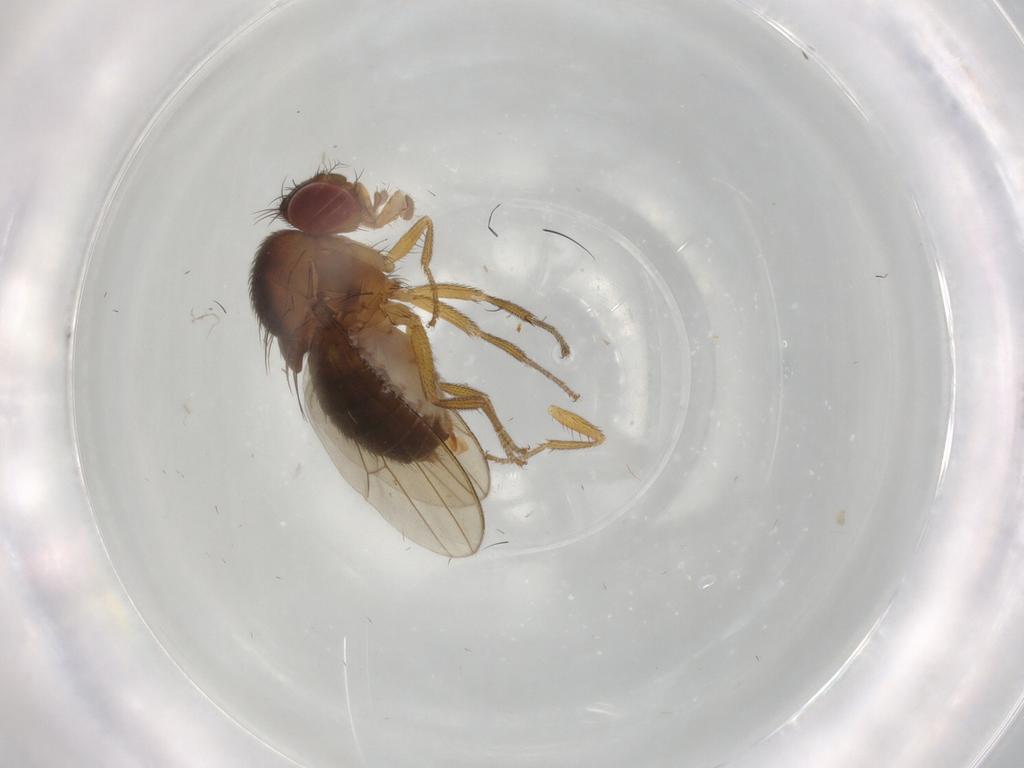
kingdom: Animalia
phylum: Arthropoda
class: Insecta
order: Diptera
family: Drosophilidae
